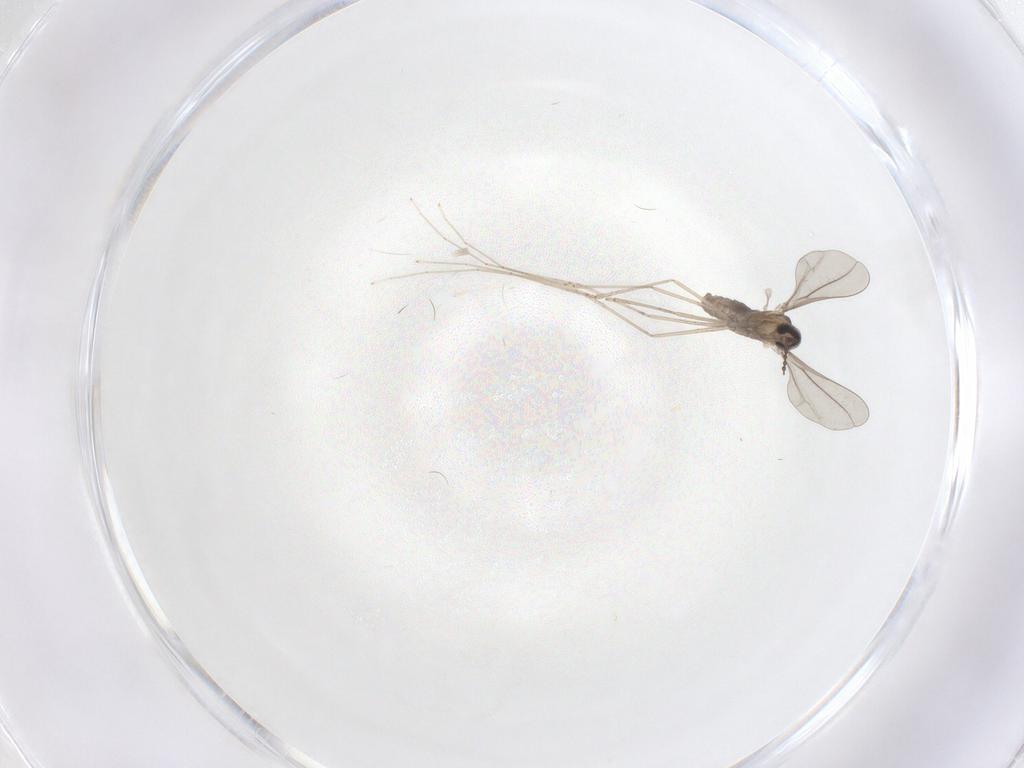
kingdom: Animalia
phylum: Arthropoda
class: Insecta
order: Diptera
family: Cecidomyiidae
